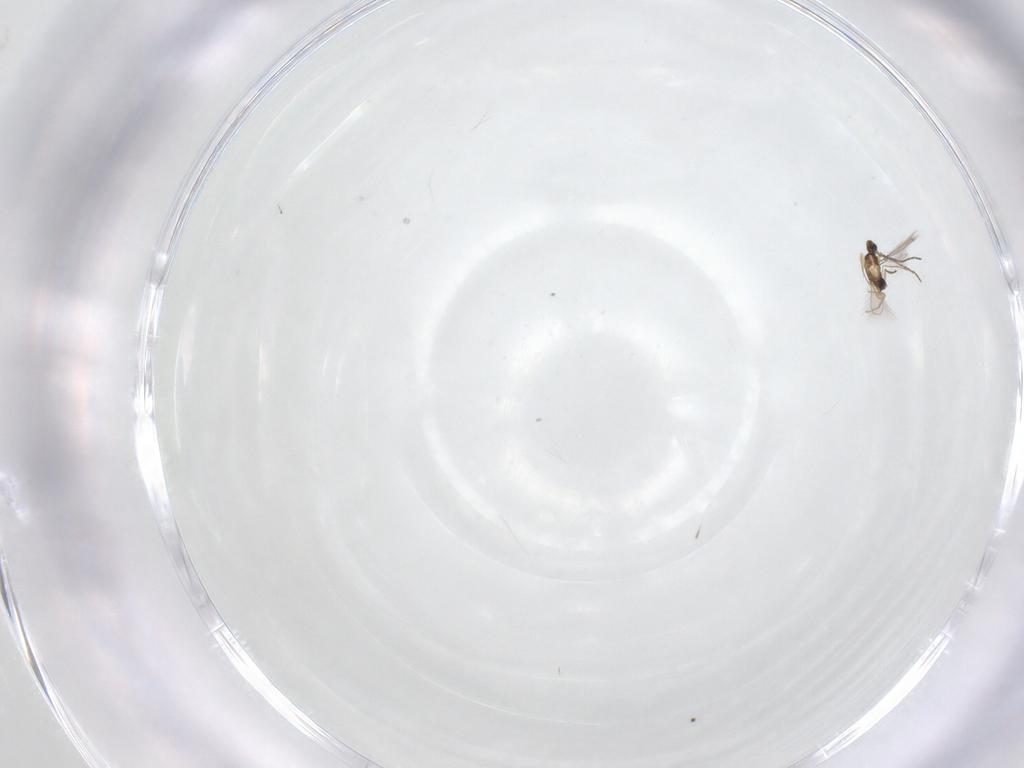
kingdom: Animalia
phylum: Arthropoda
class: Insecta
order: Hymenoptera
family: Mymaridae
